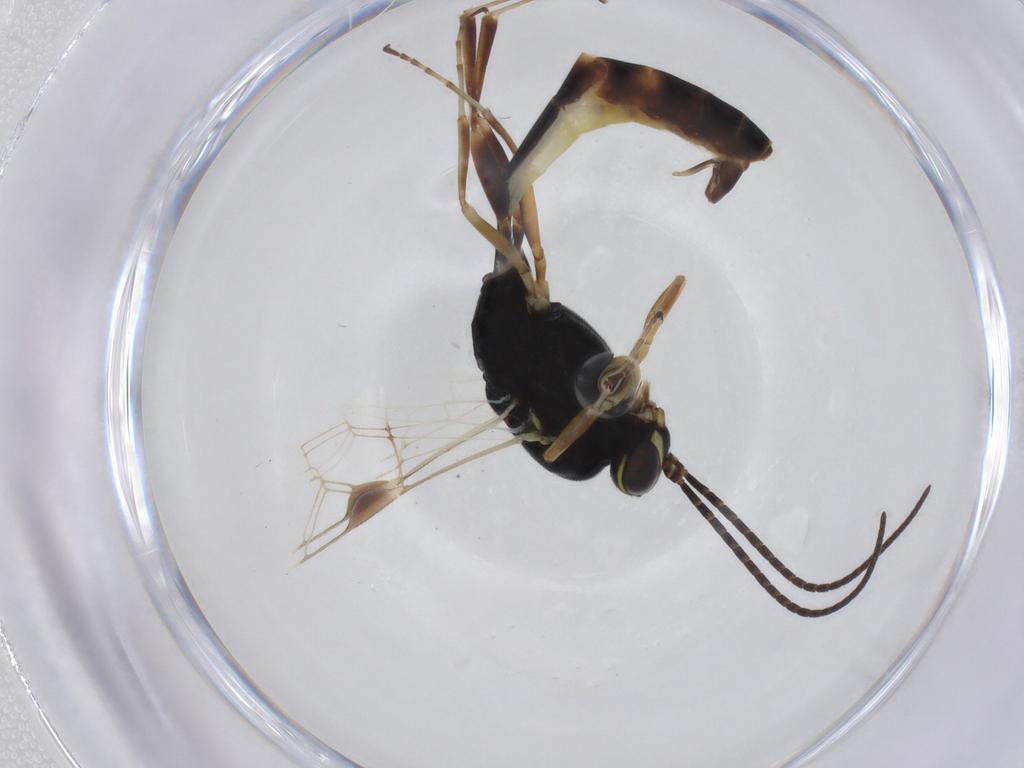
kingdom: Animalia
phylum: Arthropoda
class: Insecta
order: Hymenoptera
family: Ichneumonidae
